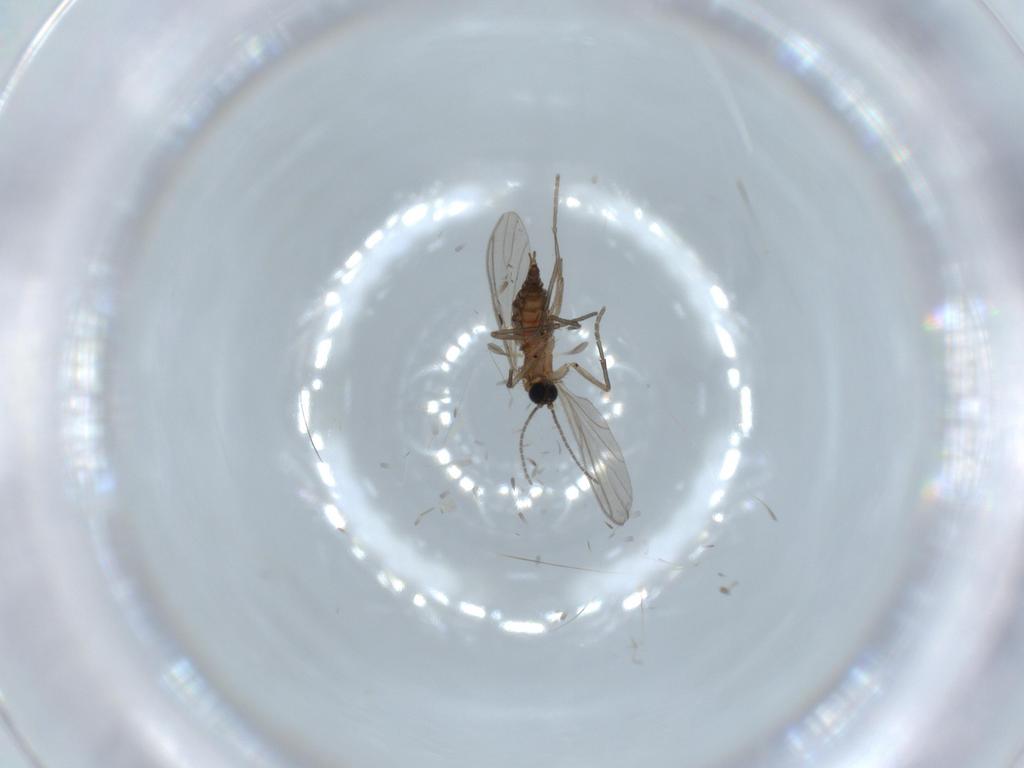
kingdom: Animalia
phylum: Arthropoda
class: Insecta
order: Diptera
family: Sciaridae
